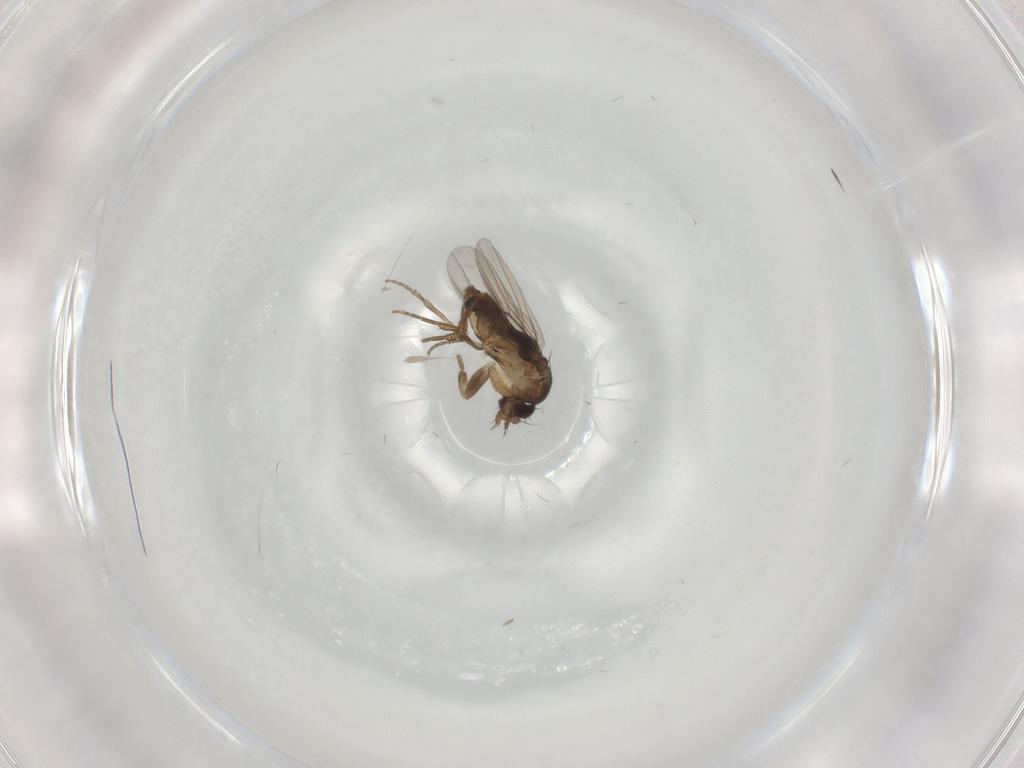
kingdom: Animalia
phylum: Arthropoda
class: Insecta
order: Diptera
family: Phoridae
